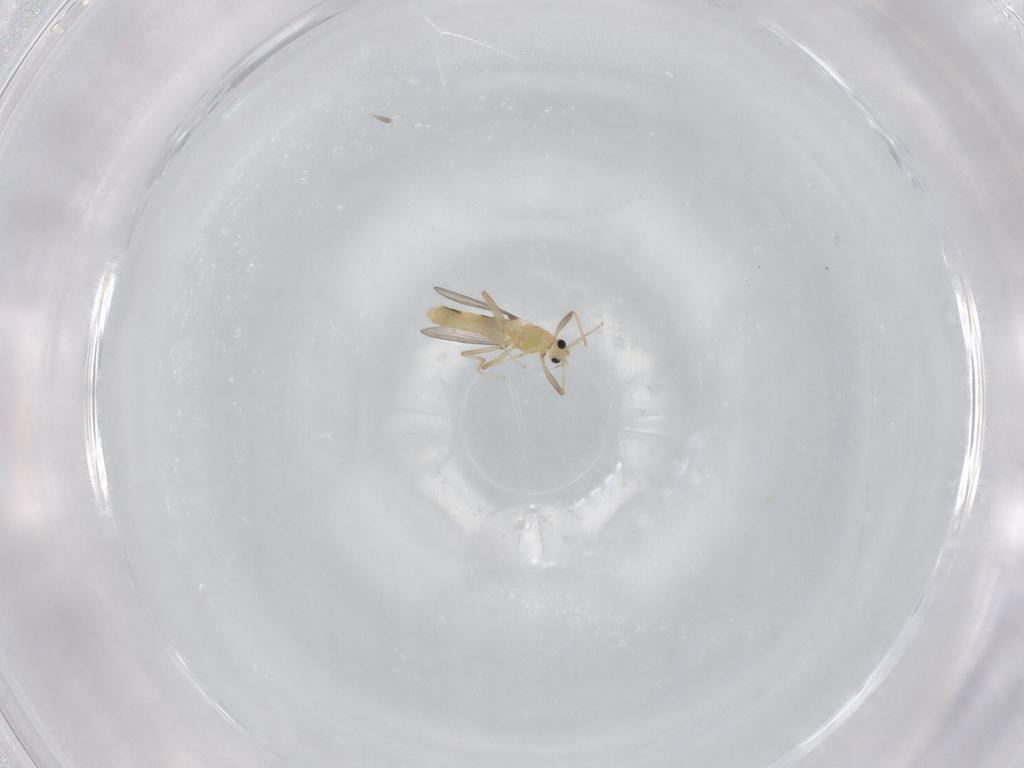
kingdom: Animalia
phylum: Arthropoda
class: Insecta
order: Diptera
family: Chironomidae
